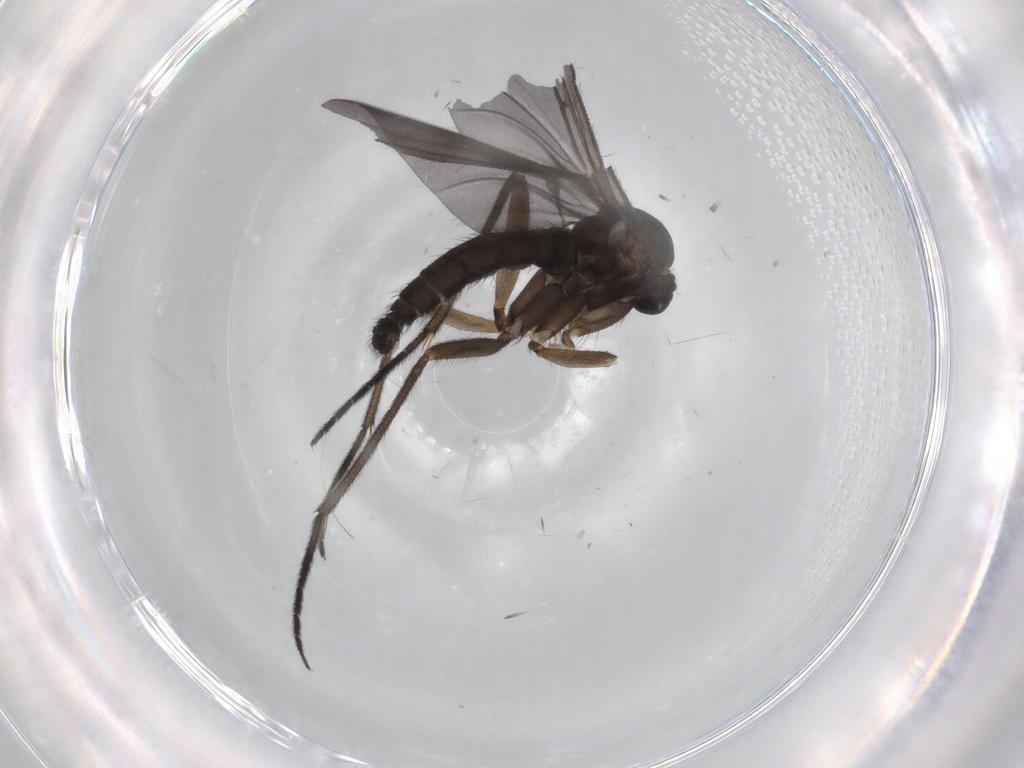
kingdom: Animalia
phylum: Arthropoda
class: Insecta
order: Diptera
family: Sciaridae
